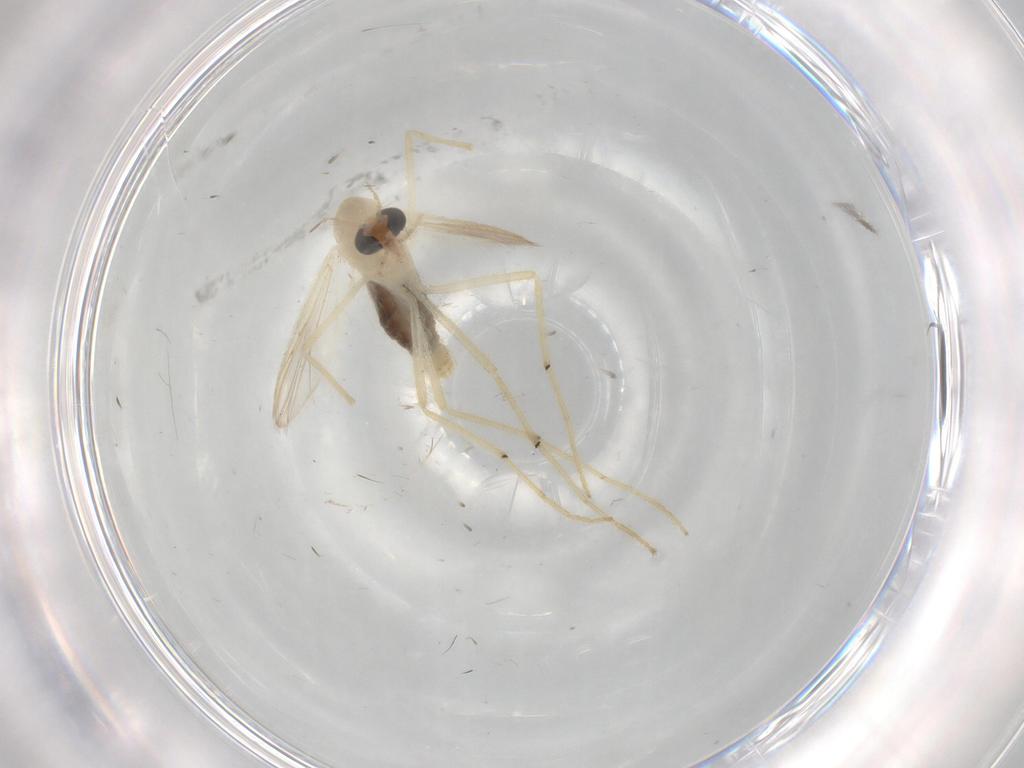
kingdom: Animalia
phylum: Arthropoda
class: Insecta
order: Diptera
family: Chironomidae
